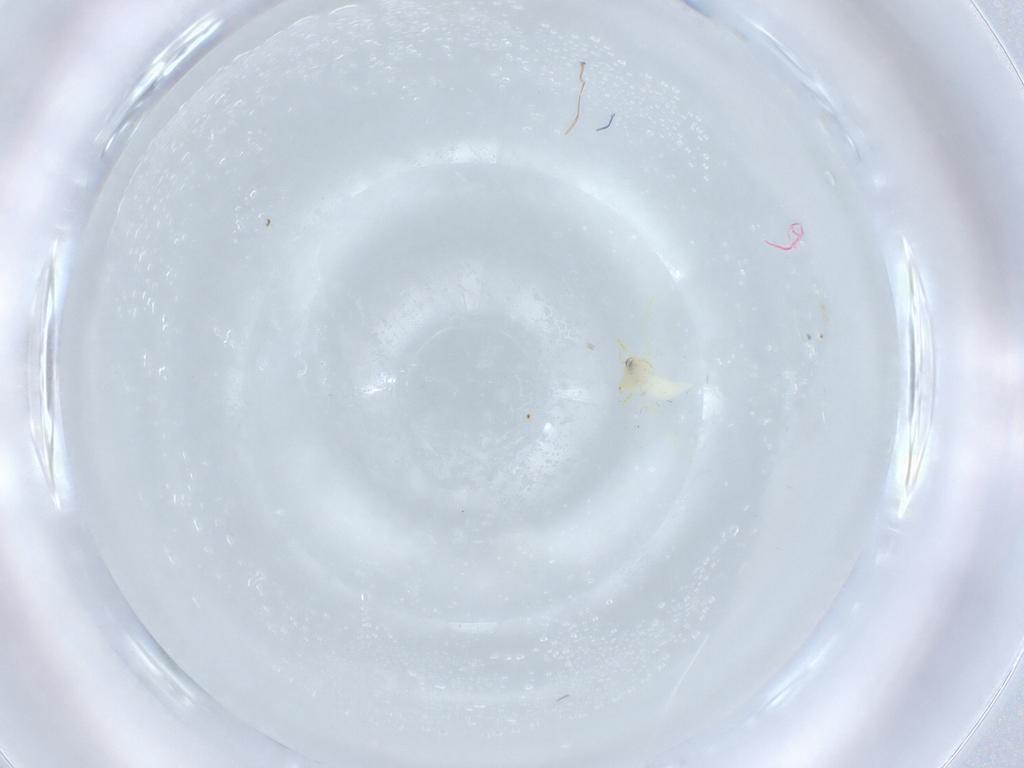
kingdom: Animalia
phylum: Arthropoda
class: Insecta
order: Hemiptera
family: Aleyrodidae
